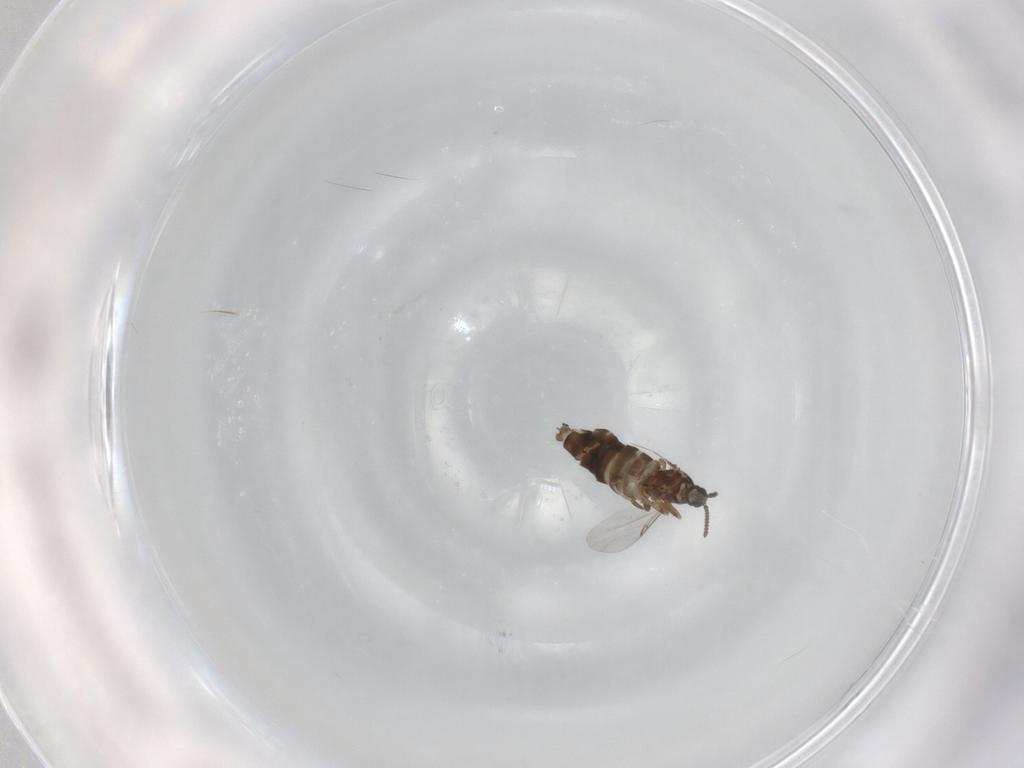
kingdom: Animalia
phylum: Arthropoda
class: Insecta
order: Diptera
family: Scatopsidae
